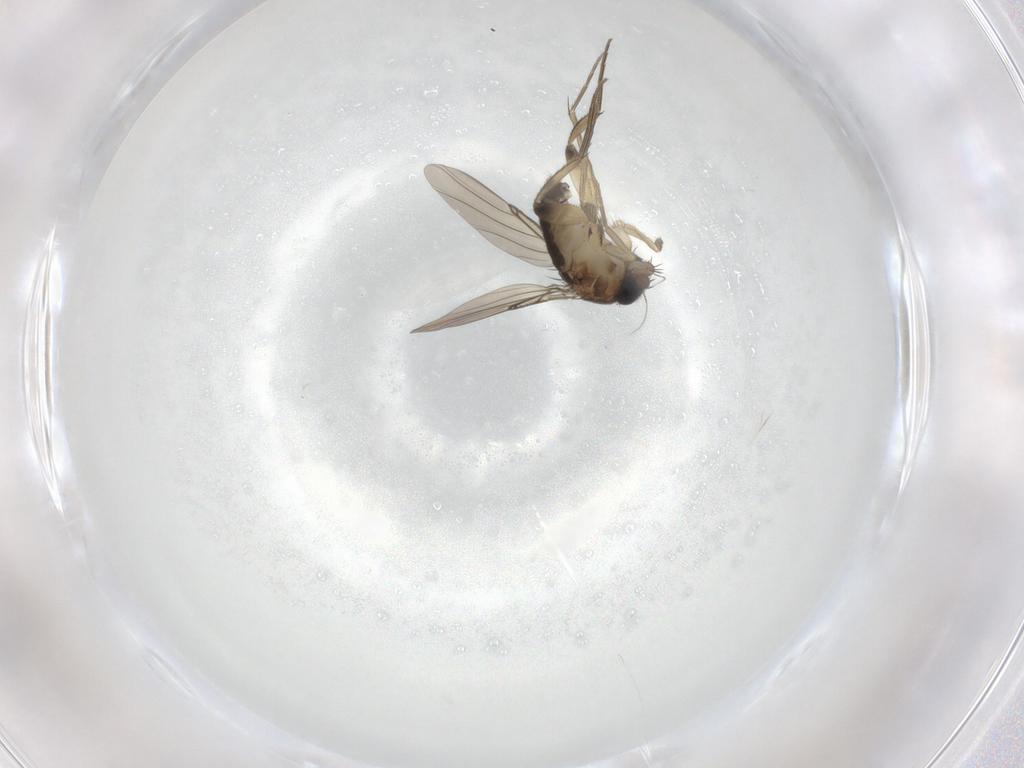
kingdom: Animalia
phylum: Arthropoda
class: Insecta
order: Diptera
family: Phoridae
